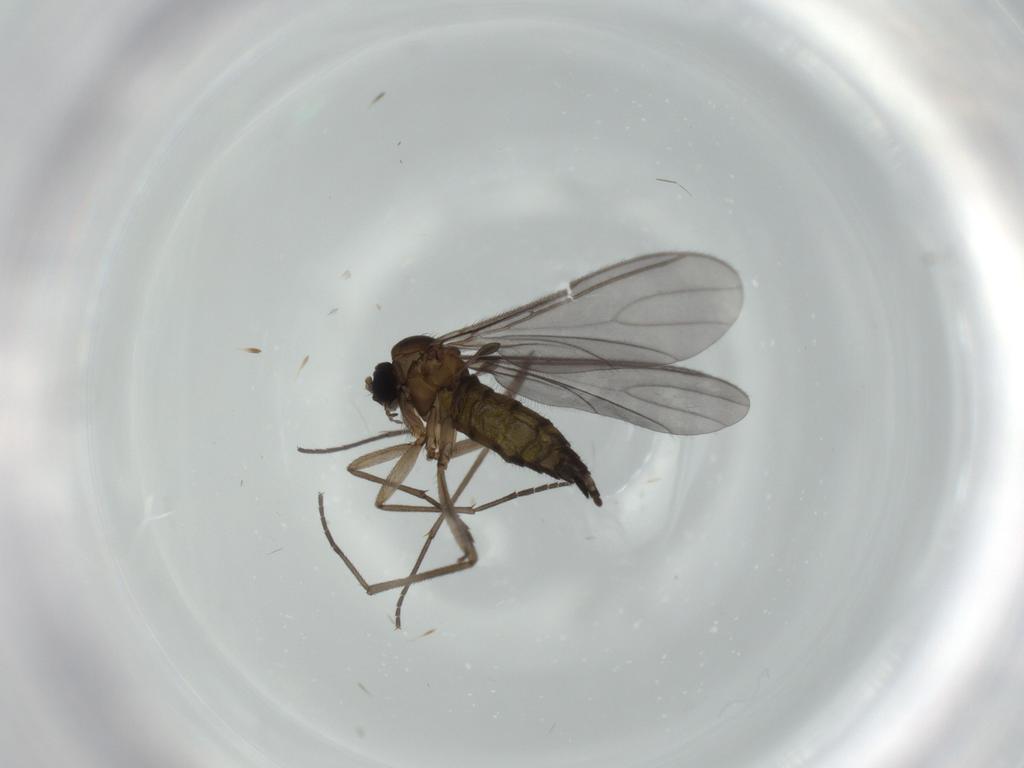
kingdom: Animalia
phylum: Arthropoda
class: Insecta
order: Diptera
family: Sciaridae
